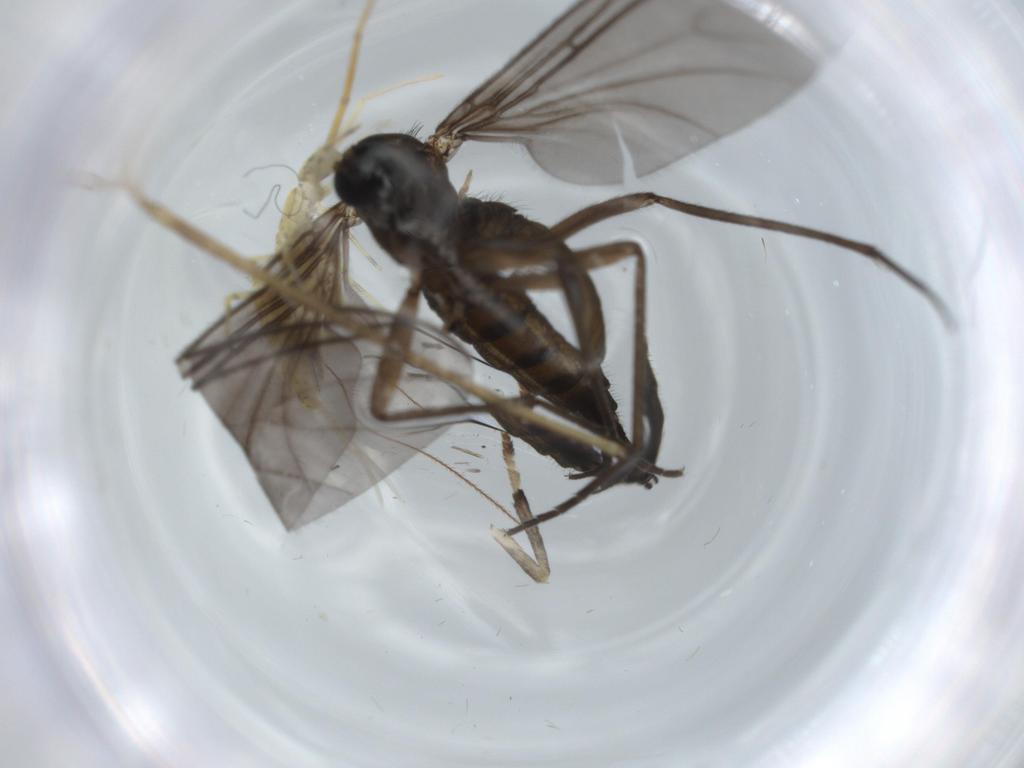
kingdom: Animalia
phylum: Arthropoda
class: Collembola
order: Entomobryomorpha
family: Paronellidae
